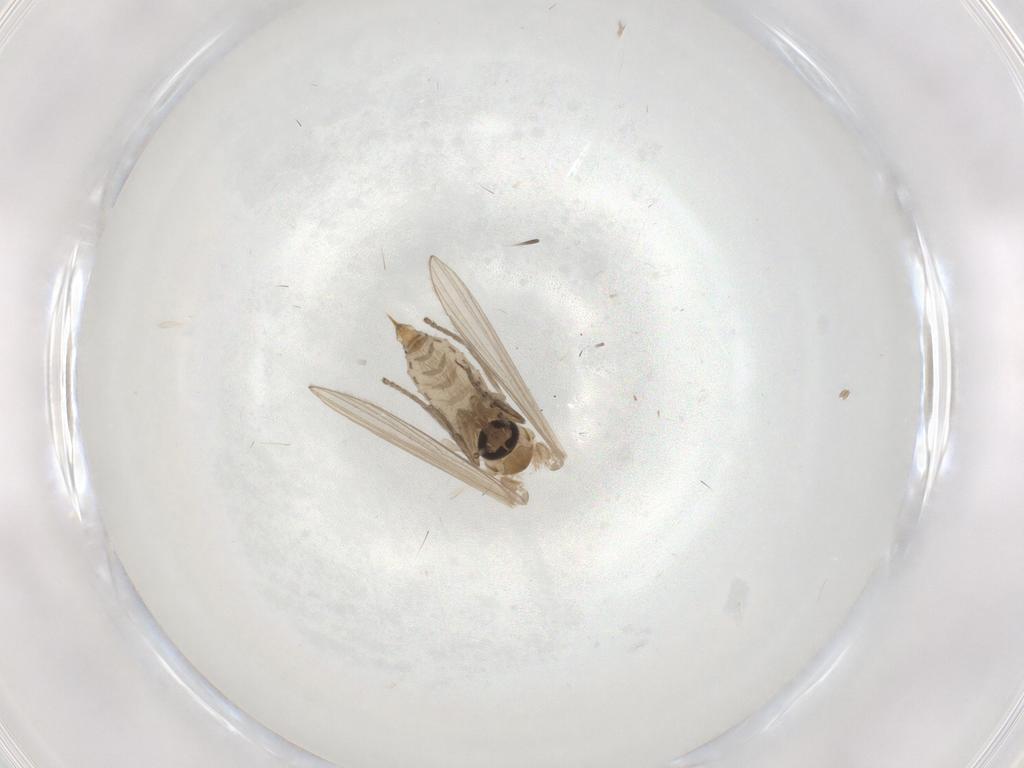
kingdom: Animalia
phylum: Arthropoda
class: Insecta
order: Diptera
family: Psychodidae
